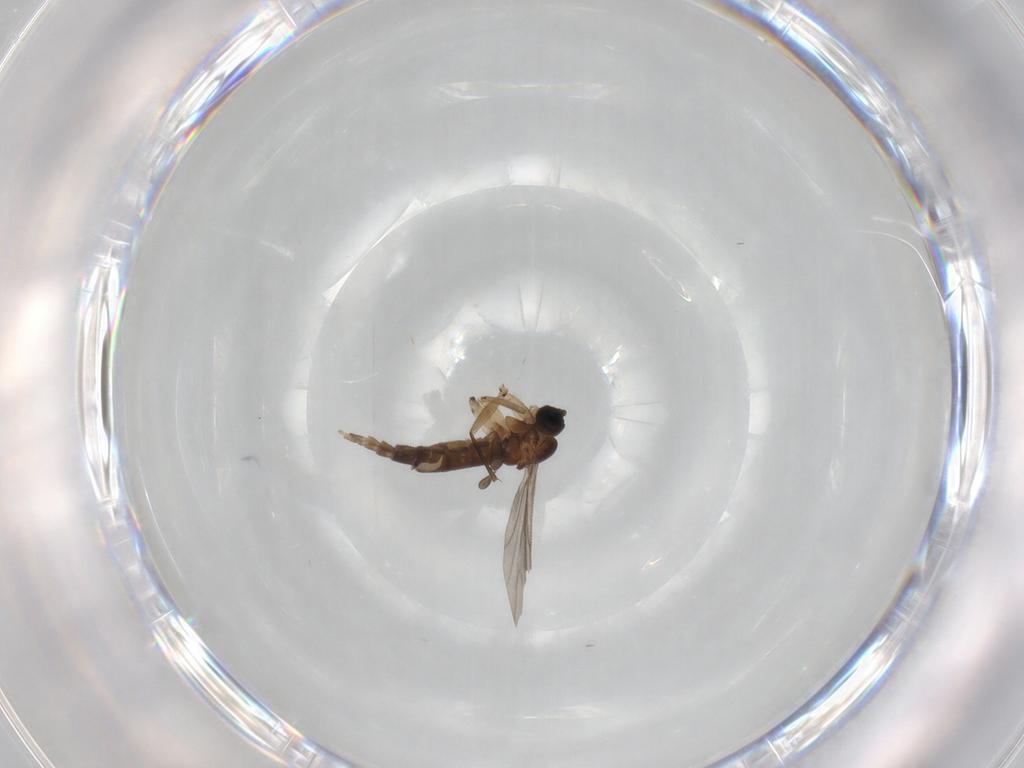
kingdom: Animalia
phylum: Arthropoda
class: Insecta
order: Diptera
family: Sphaeroceridae
